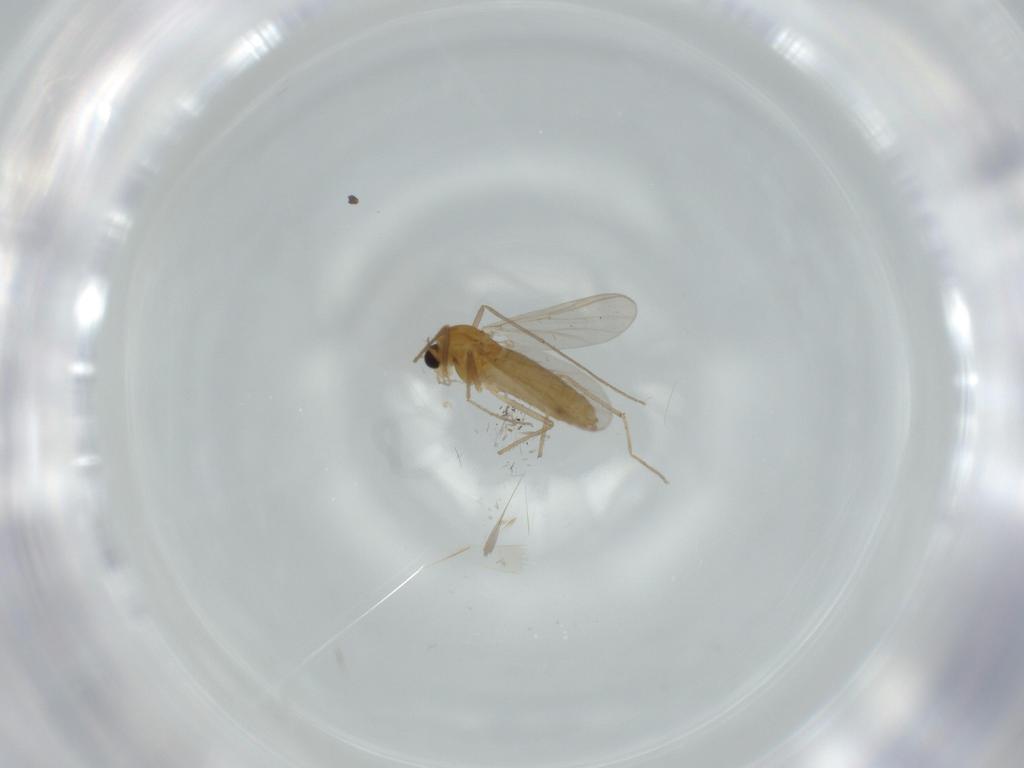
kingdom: Animalia
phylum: Arthropoda
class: Insecta
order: Diptera
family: Chironomidae
